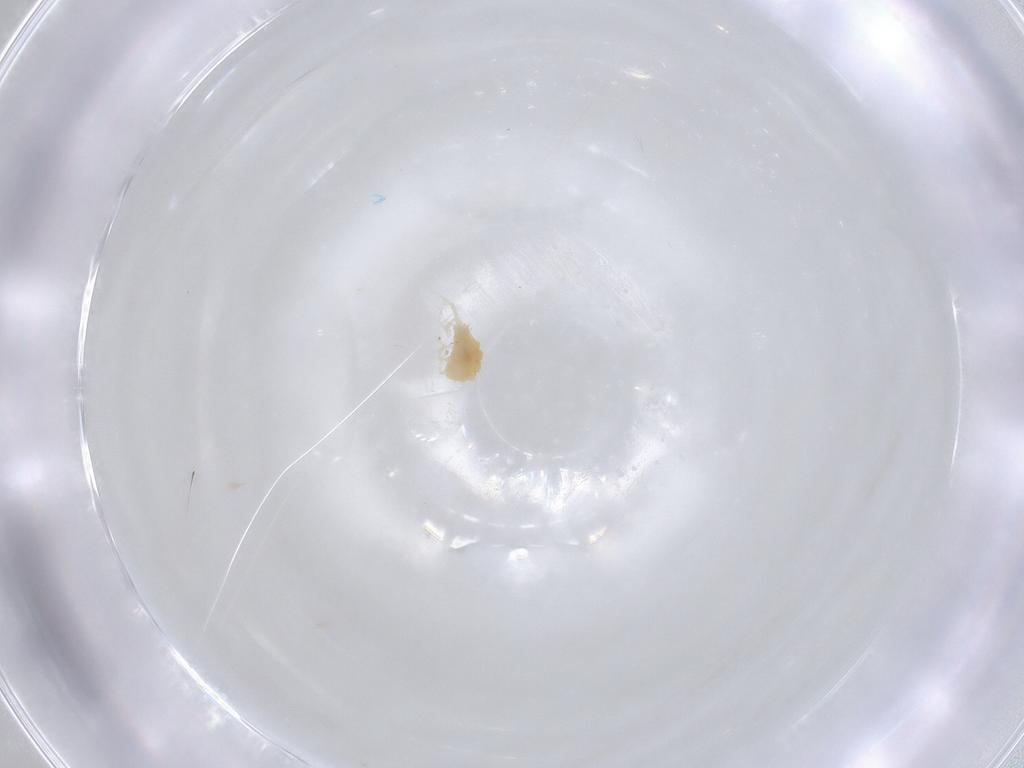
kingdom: Animalia
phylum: Arthropoda
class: Arachnida
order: Trombidiformes
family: Tetranychidae
